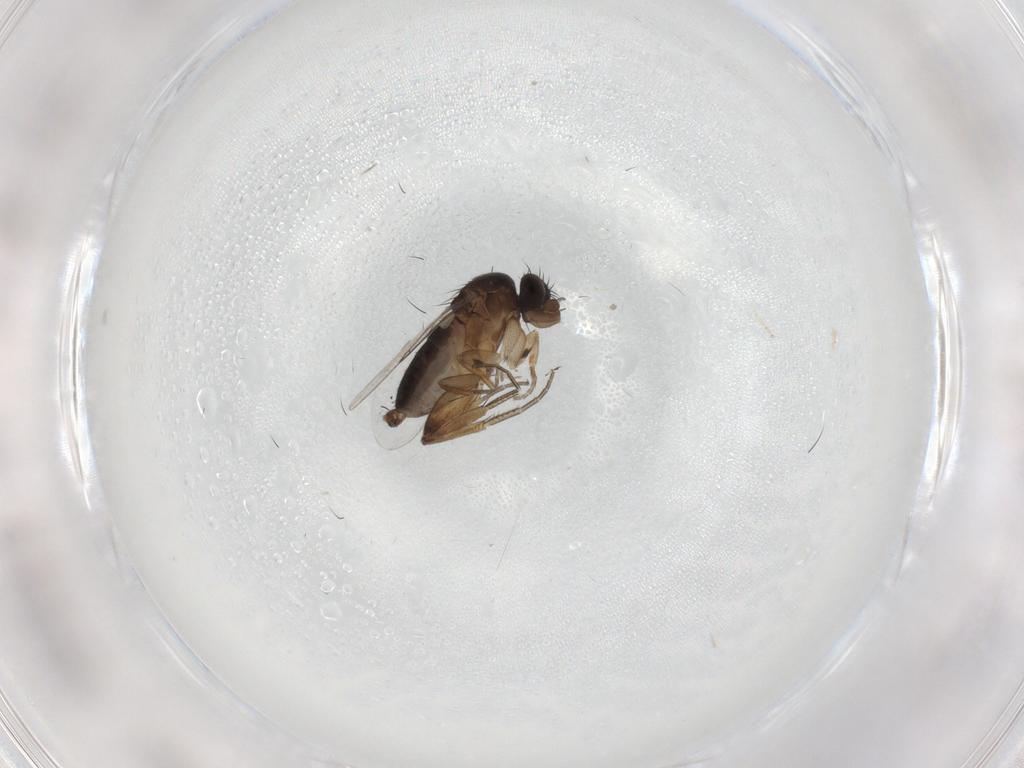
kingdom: Animalia
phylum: Arthropoda
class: Insecta
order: Diptera
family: Phoridae
